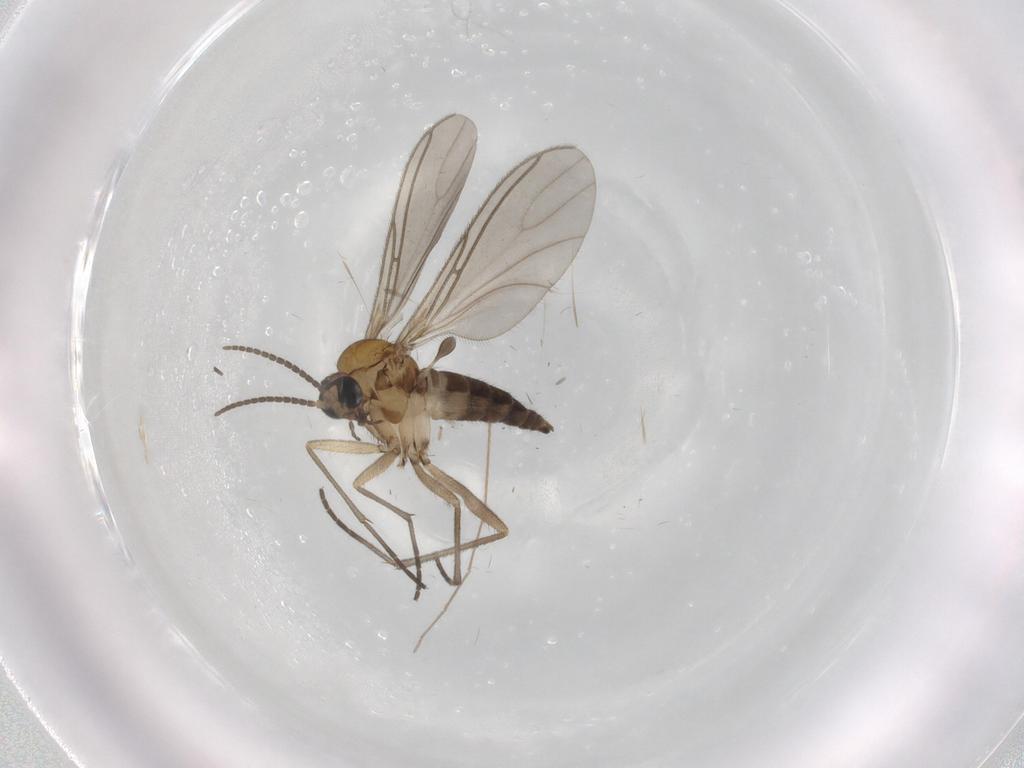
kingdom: Animalia
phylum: Arthropoda
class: Insecta
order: Diptera
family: Sciaridae
